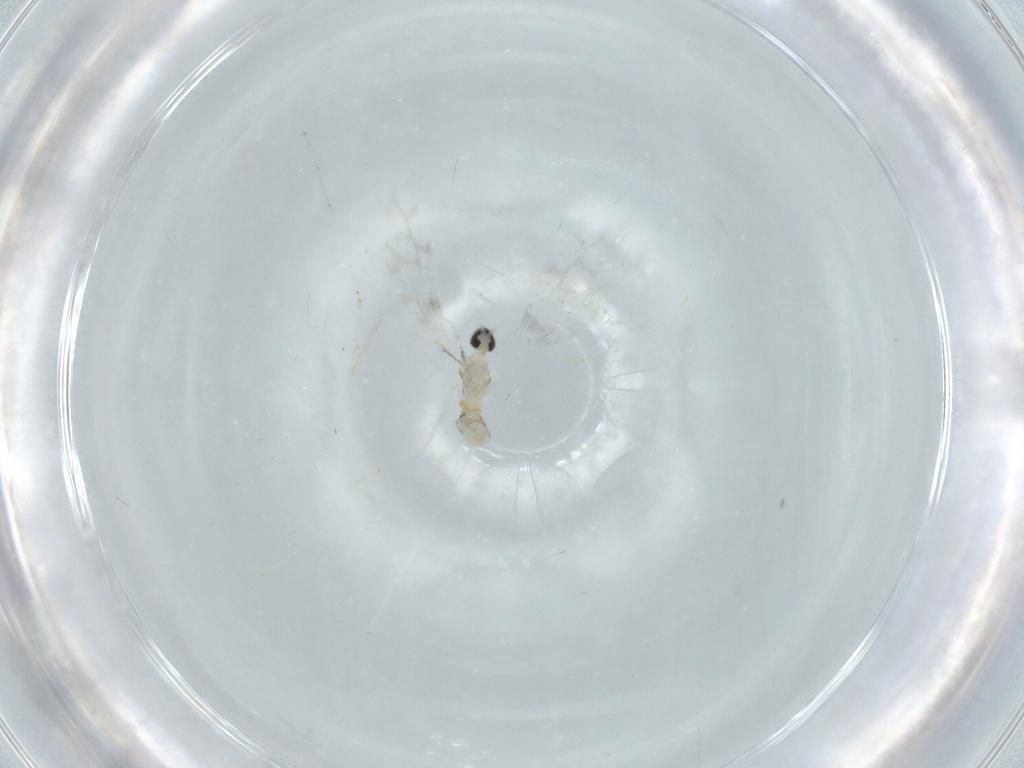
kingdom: Animalia
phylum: Arthropoda
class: Insecta
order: Diptera
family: Cecidomyiidae
